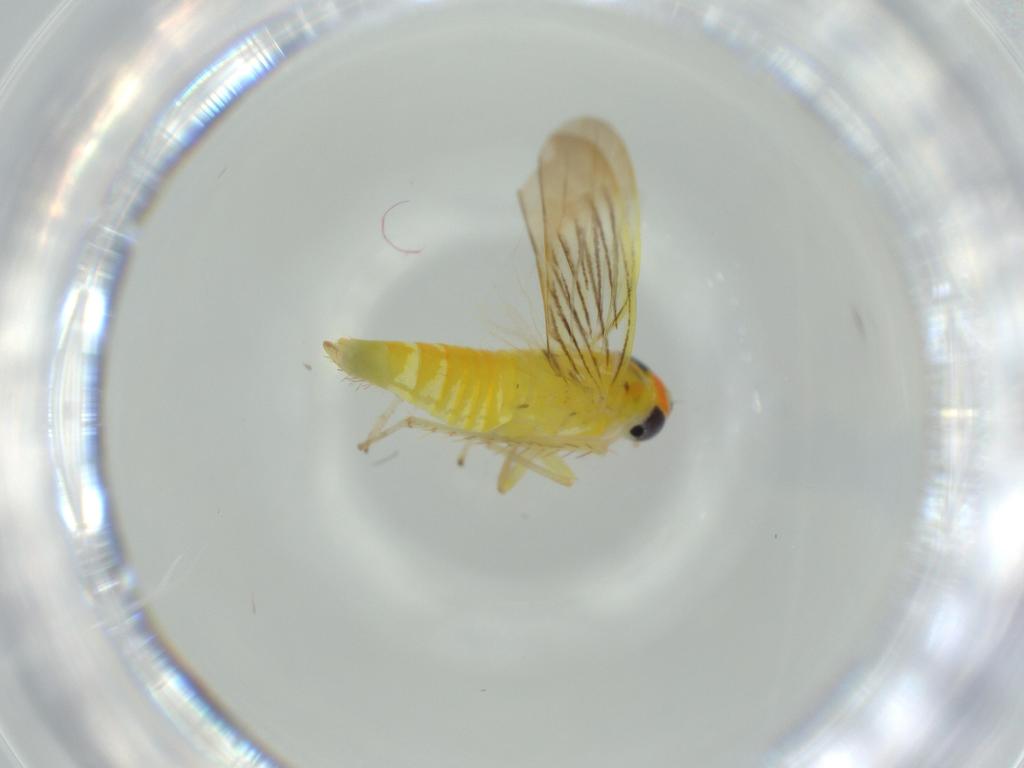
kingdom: Animalia
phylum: Arthropoda
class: Insecta
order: Hemiptera
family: Cicadellidae
